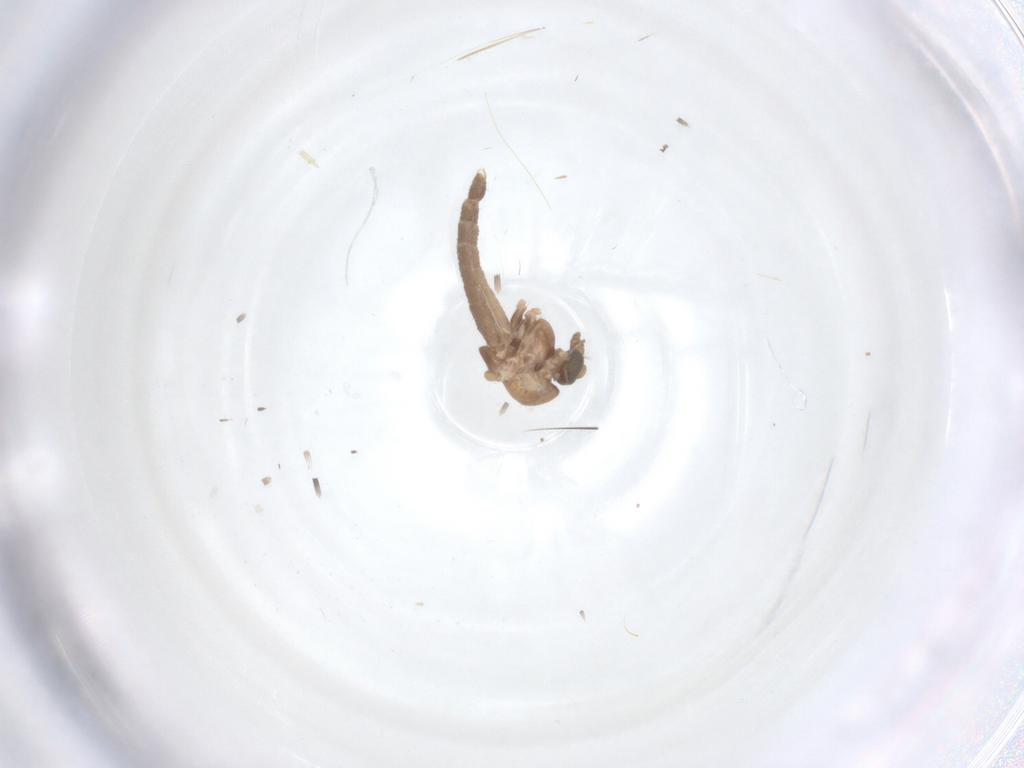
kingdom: Animalia
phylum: Arthropoda
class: Insecta
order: Diptera
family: Chironomidae
